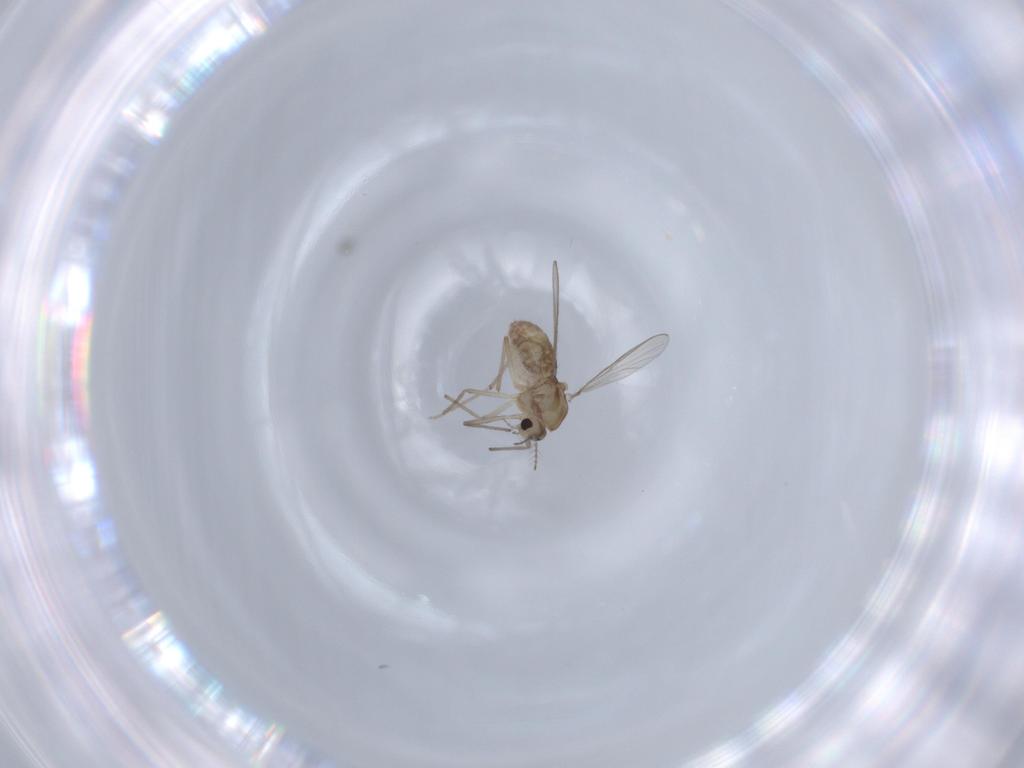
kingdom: Animalia
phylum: Arthropoda
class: Insecta
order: Diptera
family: Chironomidae
